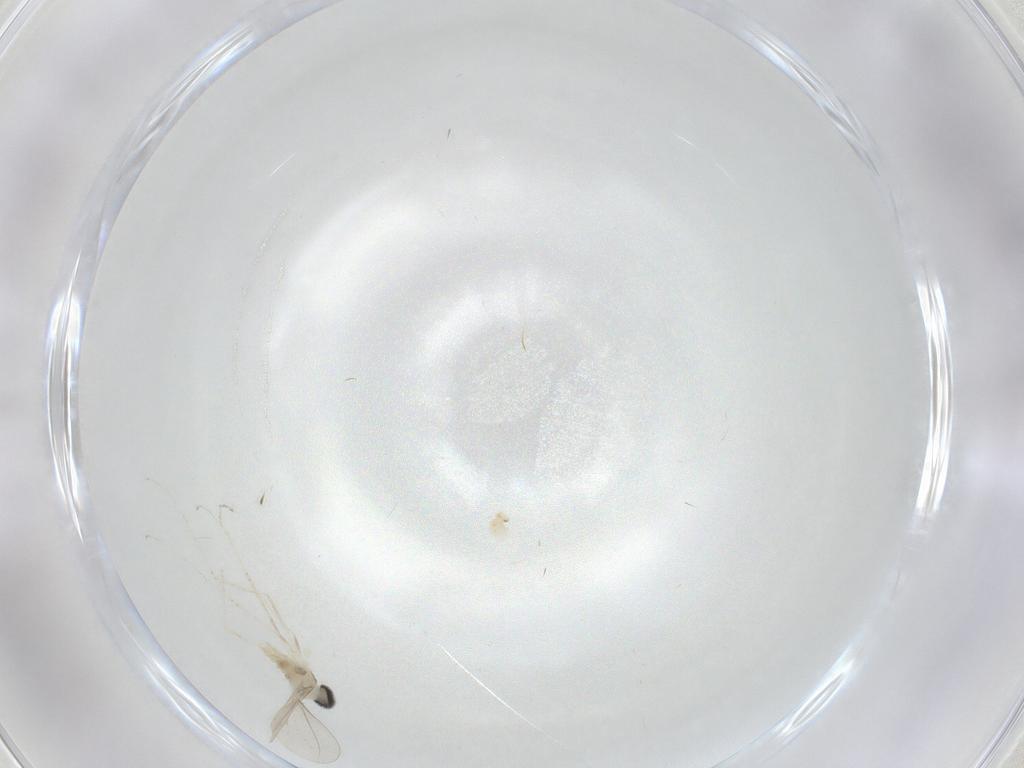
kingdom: Animalia
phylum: Arthropoda
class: Insecta
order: Diptera
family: Cecidomyiidae
